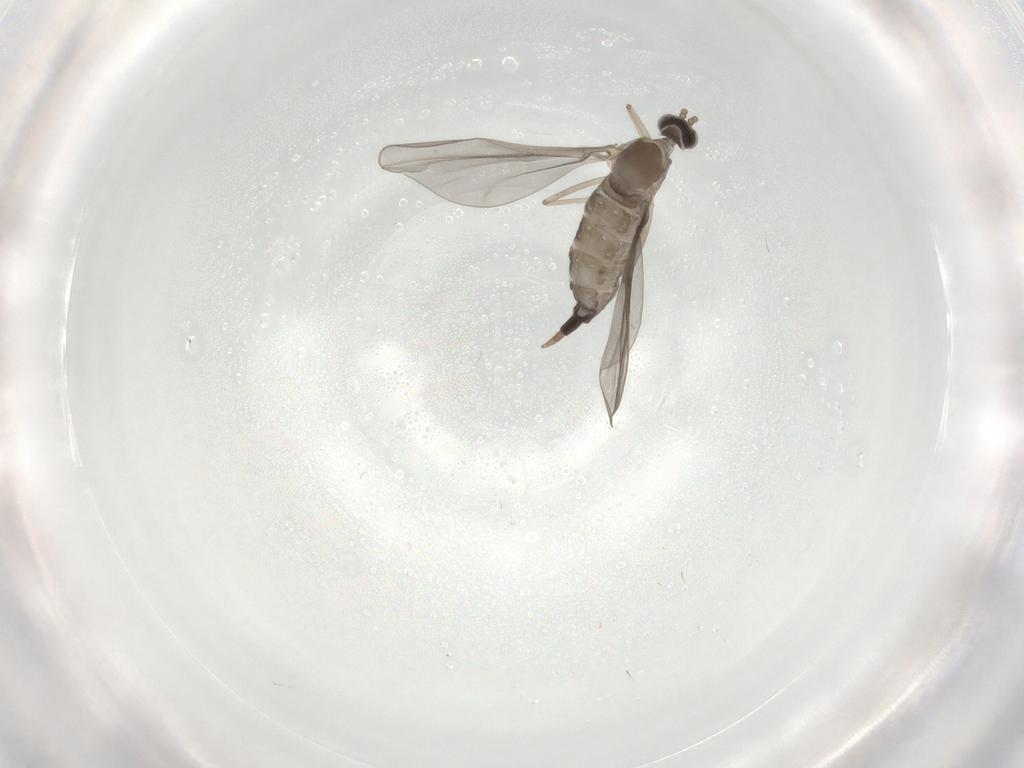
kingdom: Animalia
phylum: Arthropoda
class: Insecta
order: Diptera
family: Cecidomyiidae
